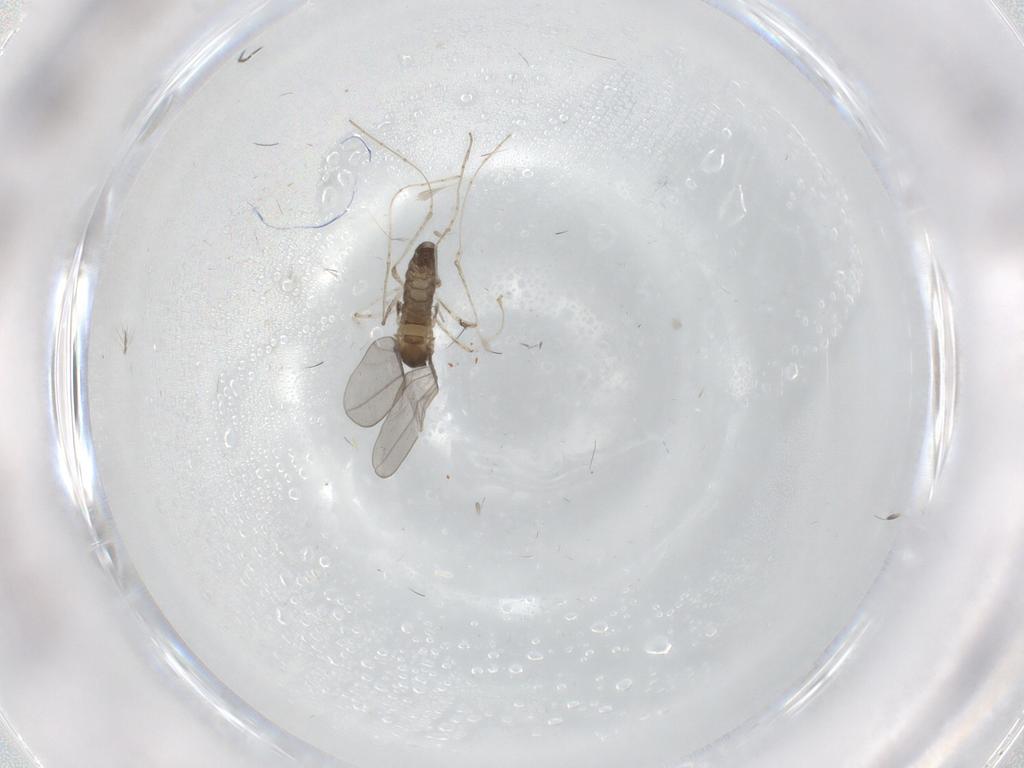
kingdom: Animalia
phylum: Arthropoda
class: Insecta
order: Diptera
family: Cecidomyiidae
